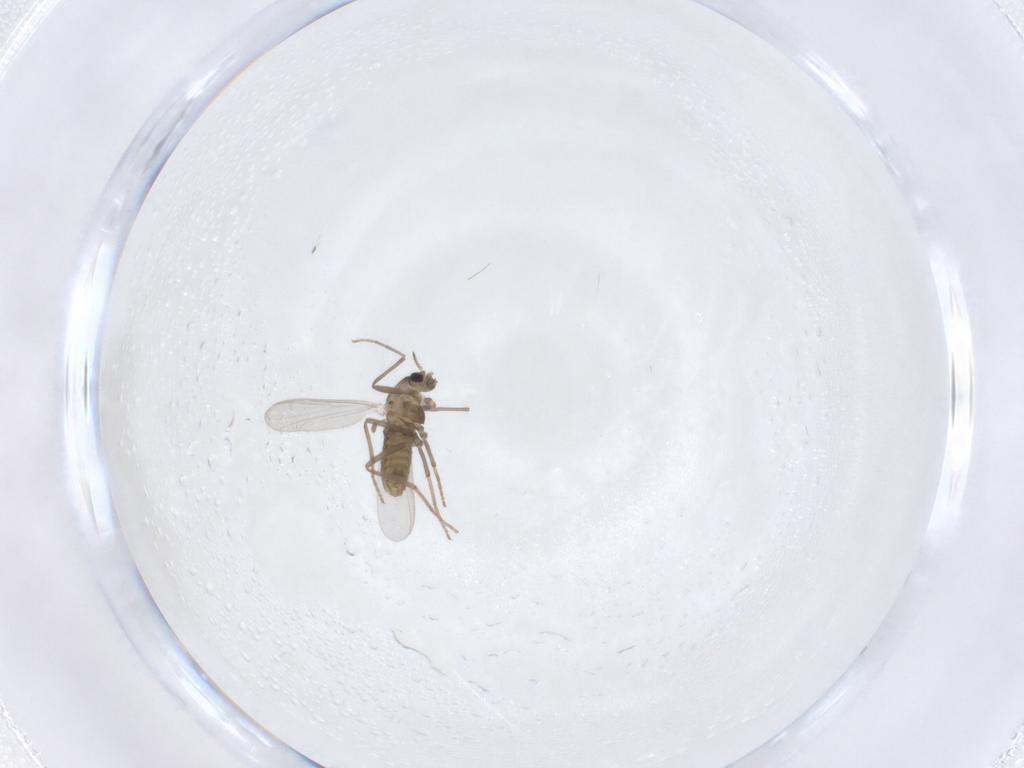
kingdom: Animalia
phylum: Arthropoda
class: Insecta
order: Diptera
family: Chironomidae
